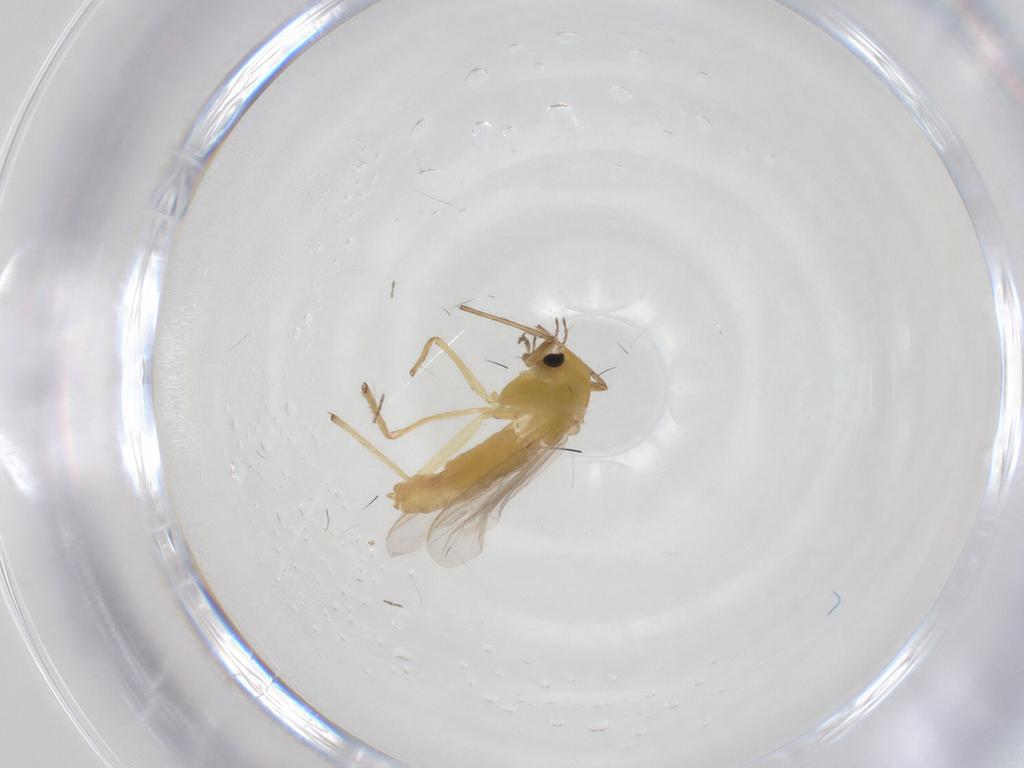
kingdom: Animalia
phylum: Arthropoda
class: Insecta
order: Diptera
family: Chironomidae
